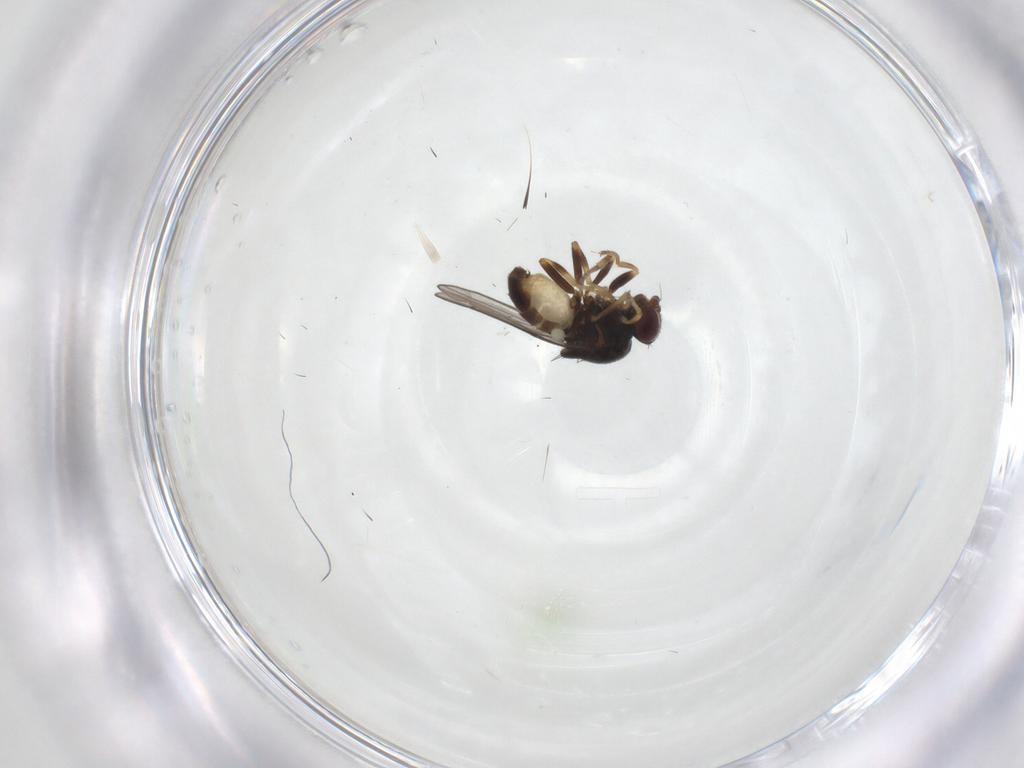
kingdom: Animalia
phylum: Arthropoda
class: Insecta
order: Diptera
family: Chloropidae
